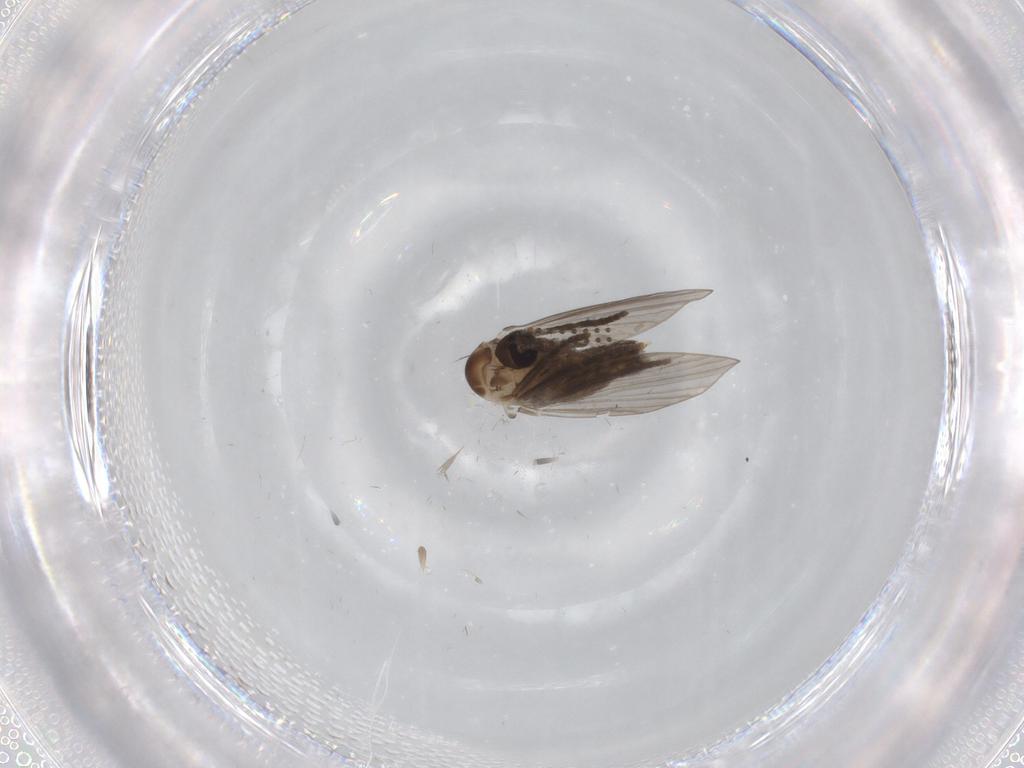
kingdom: Animalia
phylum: Arthropoda
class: Insecta
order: Diptera
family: Psychodidae
